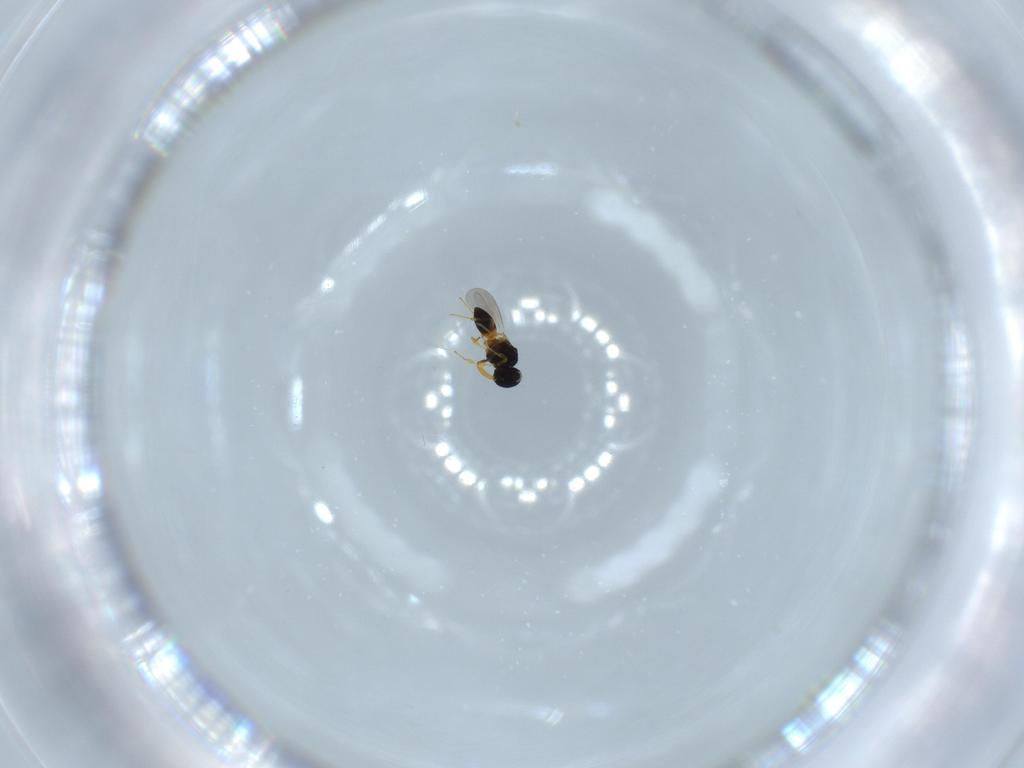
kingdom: Animalia
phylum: Arthropoda
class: Insecta
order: Hymenoptera
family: Platygastridae
